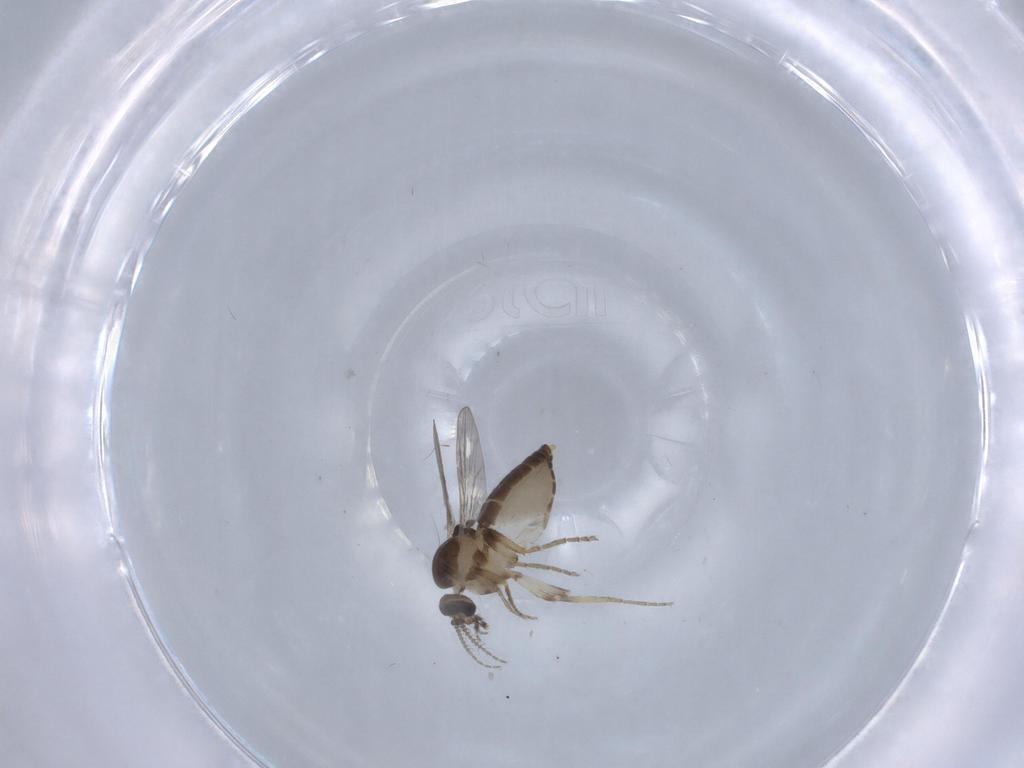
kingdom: Animalia
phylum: Arthropoda
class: Insecta
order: Diptera
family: Ceratopogonidae
